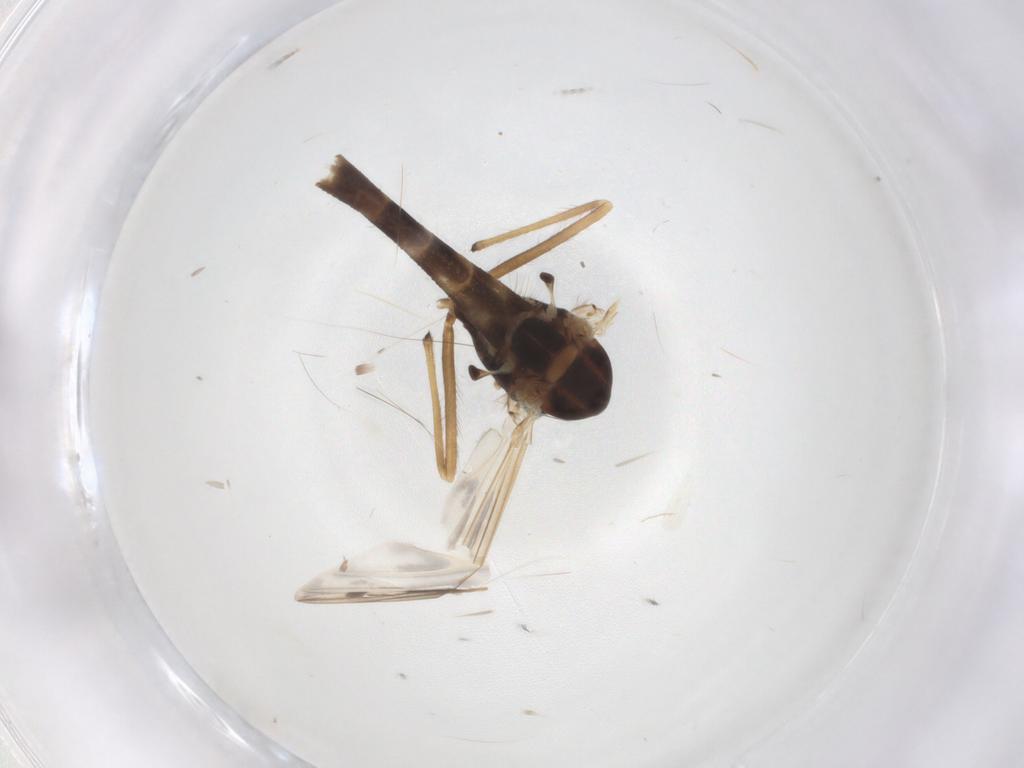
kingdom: Animalia
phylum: Arthropoda
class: Insecta
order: Diptera
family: Chironomidae
